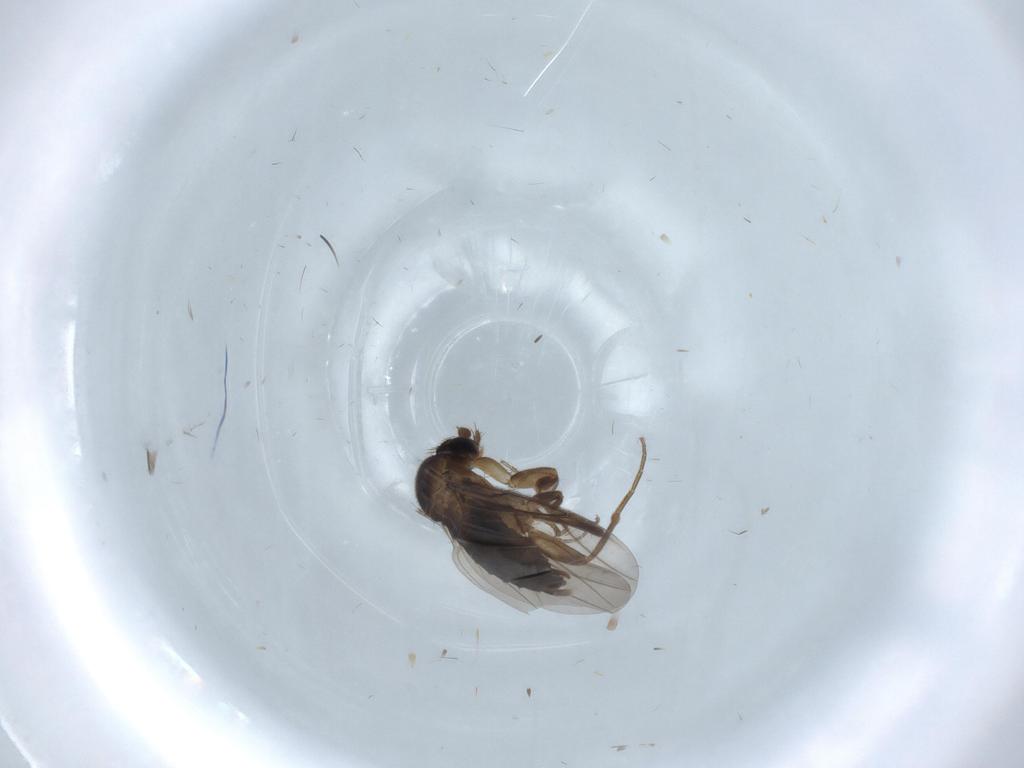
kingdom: Animalia
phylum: Arthropoda
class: Insecta
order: Diptera
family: Phoridae
